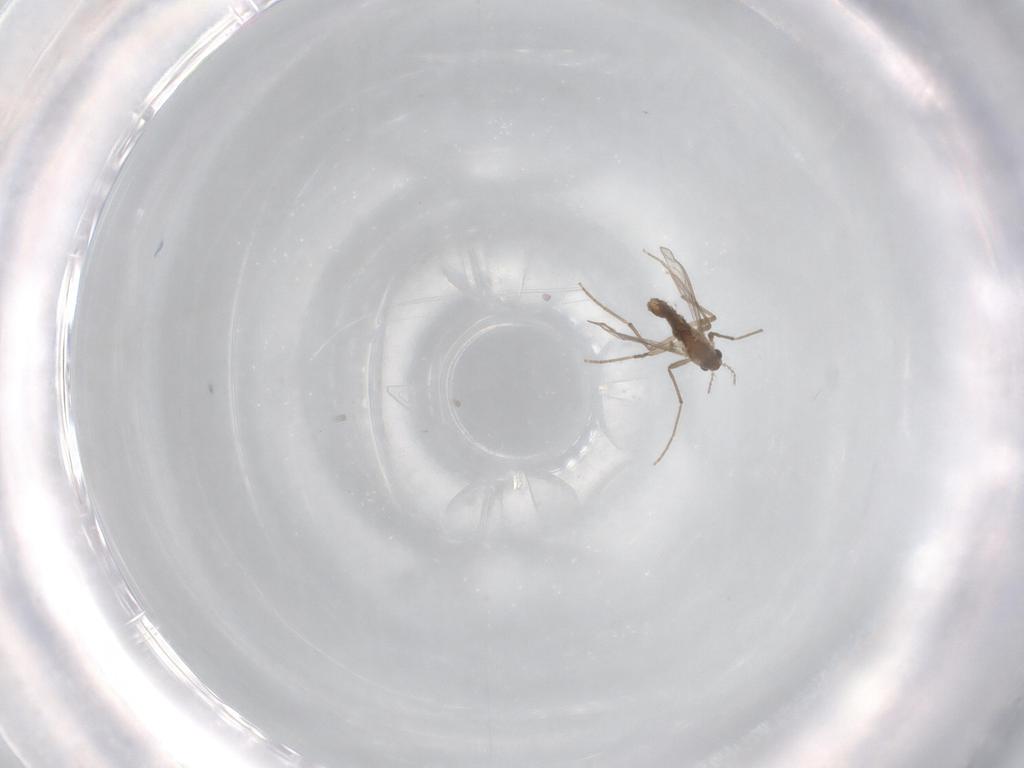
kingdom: Animalia
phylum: Arthropoda
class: Insecta
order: Diptera
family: Chironomidae
